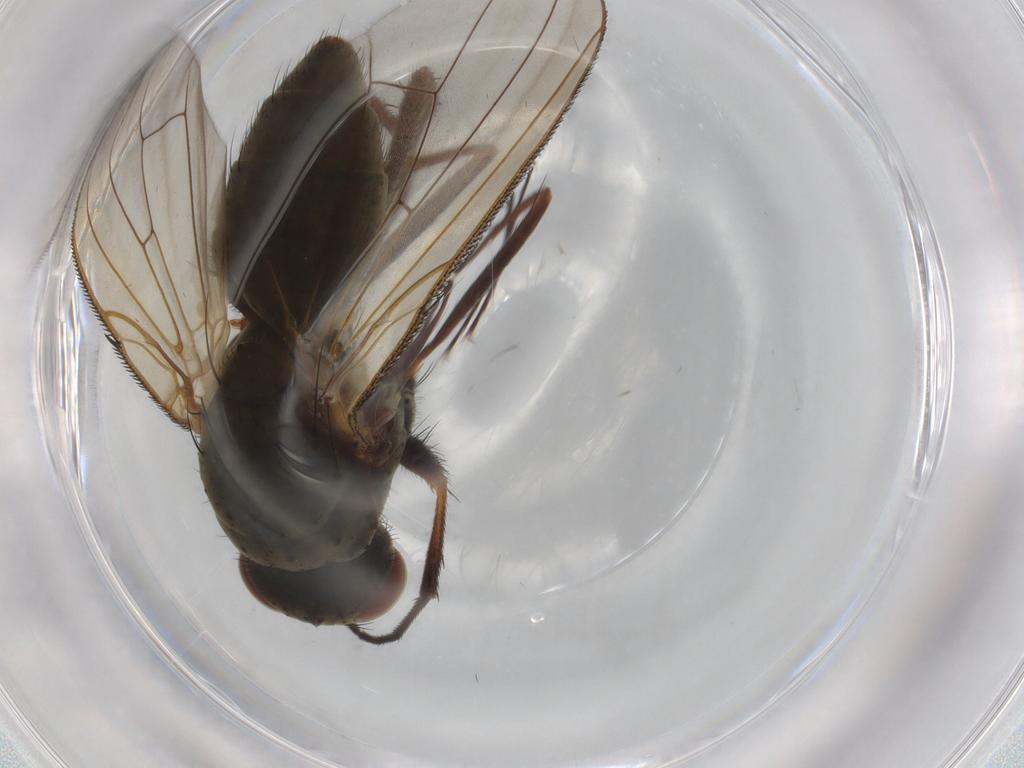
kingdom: Animalia
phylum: Arthropoda
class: Insecta
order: Diptera
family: Anthomyiidae
